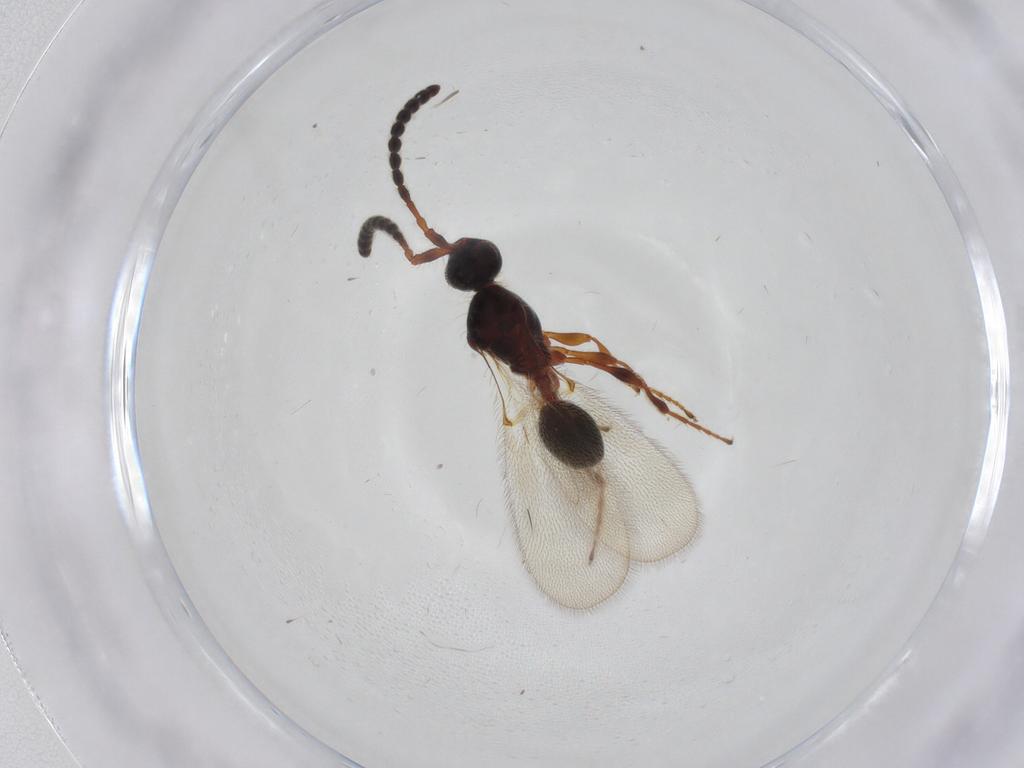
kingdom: Animalia
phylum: Arthropoda
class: Insecta
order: Hymenoptera
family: Diapriidae
